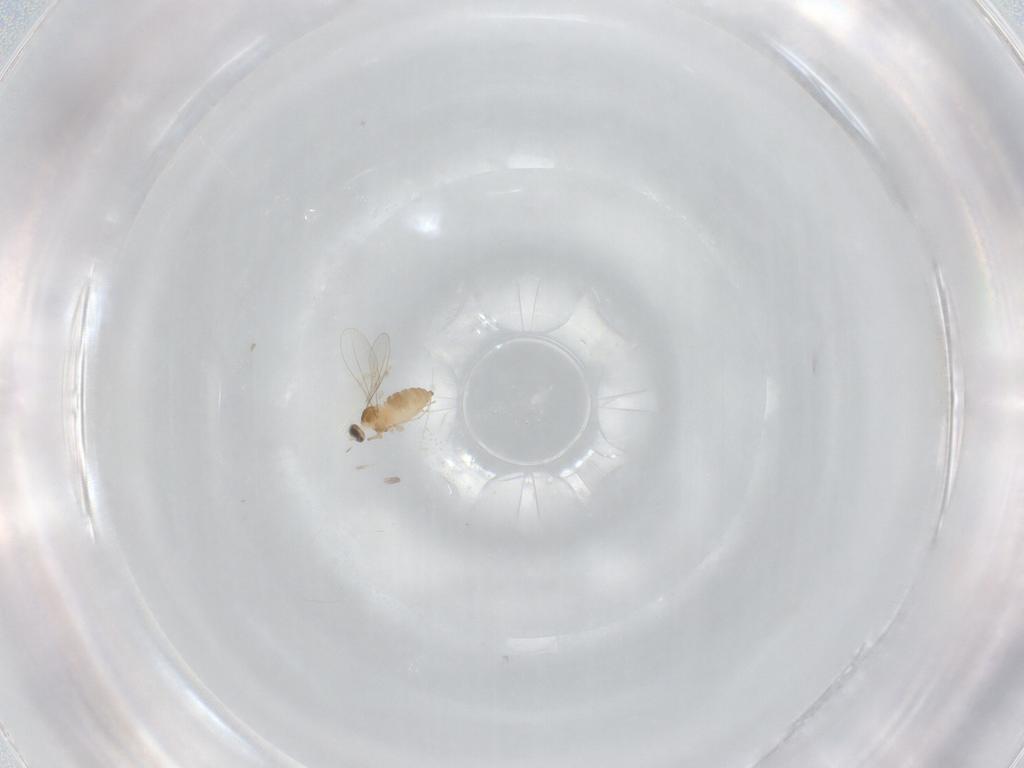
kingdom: Animalia
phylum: Arthropoda
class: Insecta
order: Diptera
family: Cecidomyiidae
